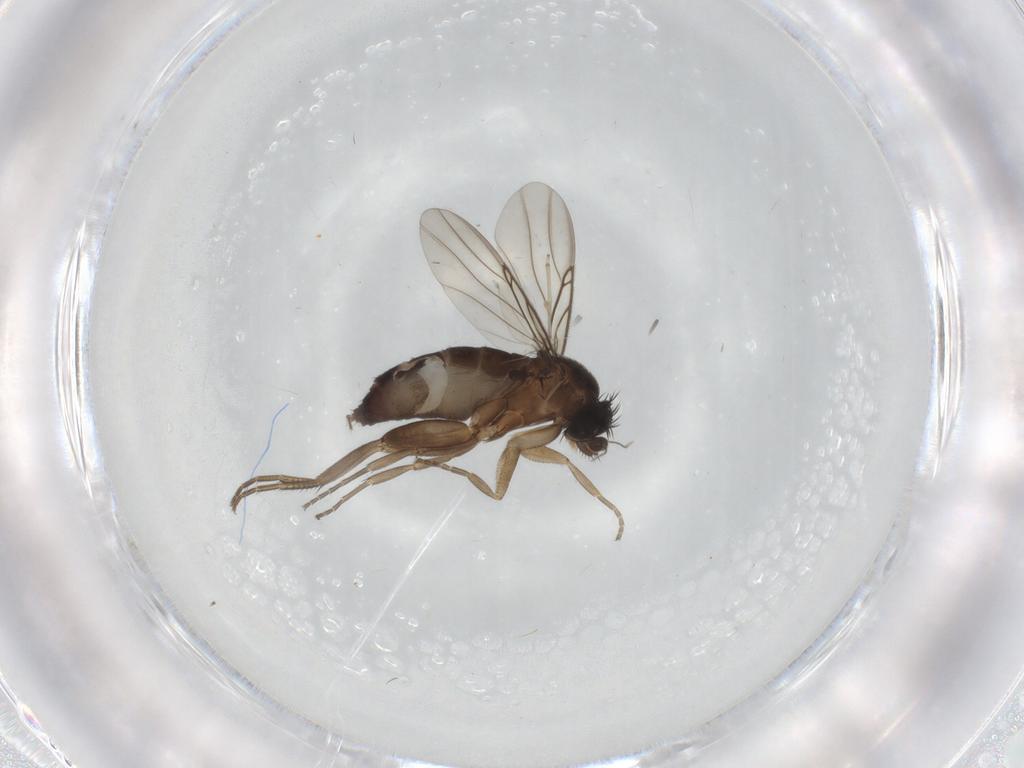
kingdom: Animalia
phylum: Arthropoda
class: Insecta
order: Diptera
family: Phoridae
